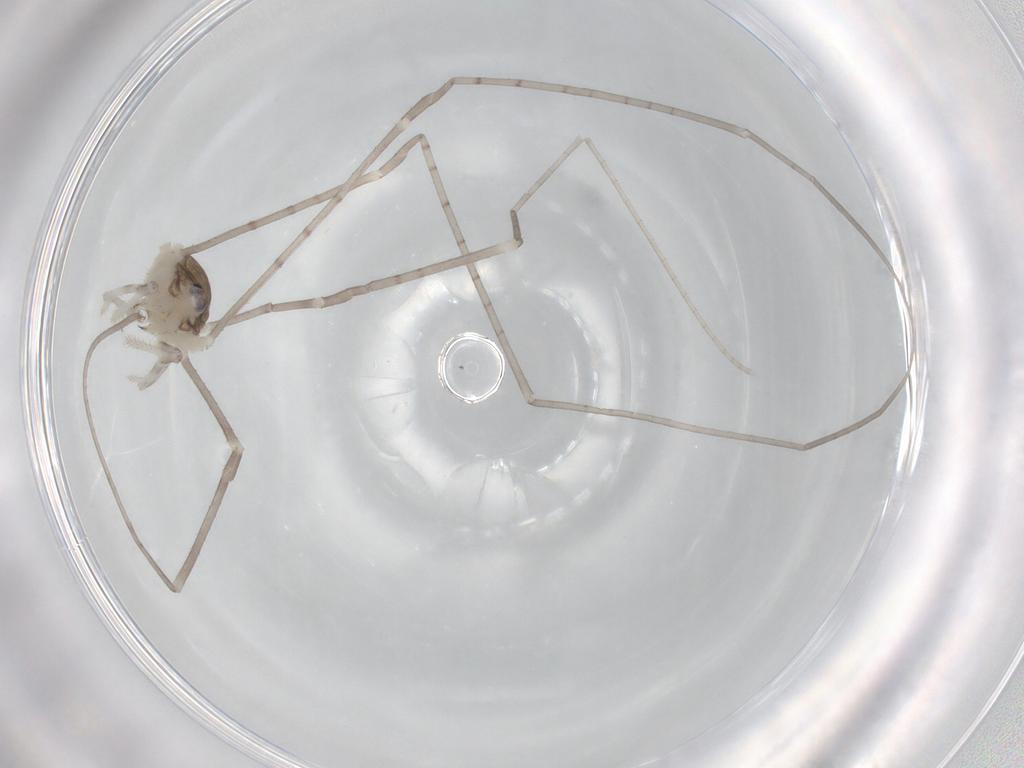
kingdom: Animalia
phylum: Arthropoda
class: Arachnida
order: Opiliones
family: Sclerosomatidae
